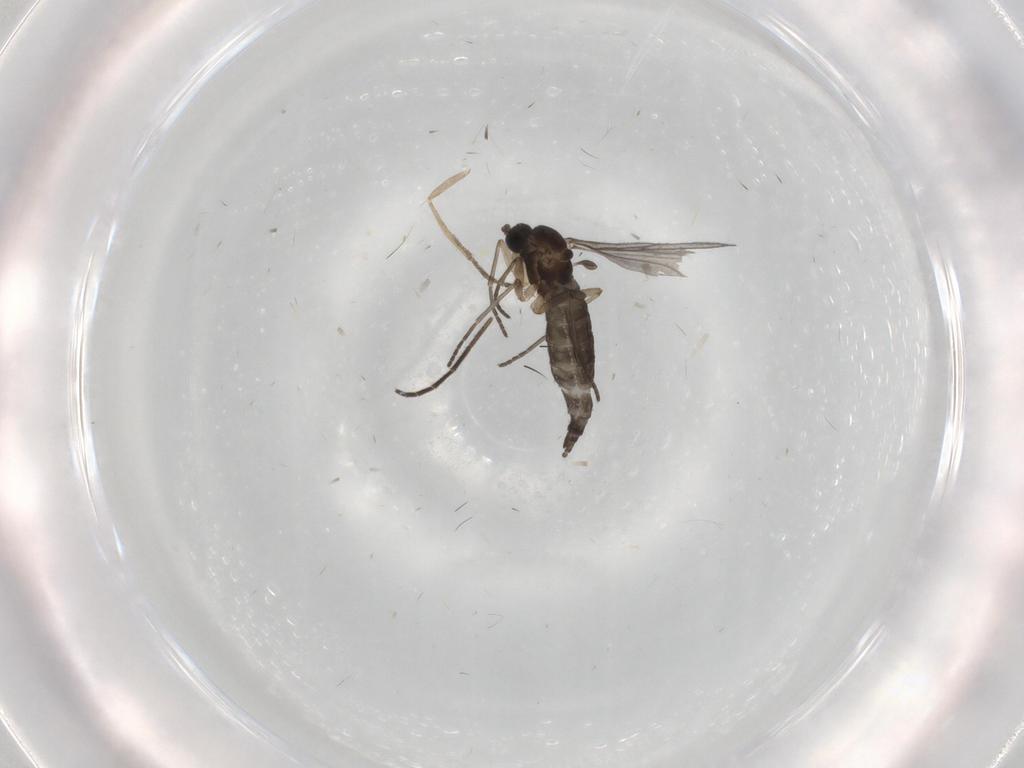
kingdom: Animalia
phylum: Arthropoda
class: Insecta
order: Diptera
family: Sciaridae
